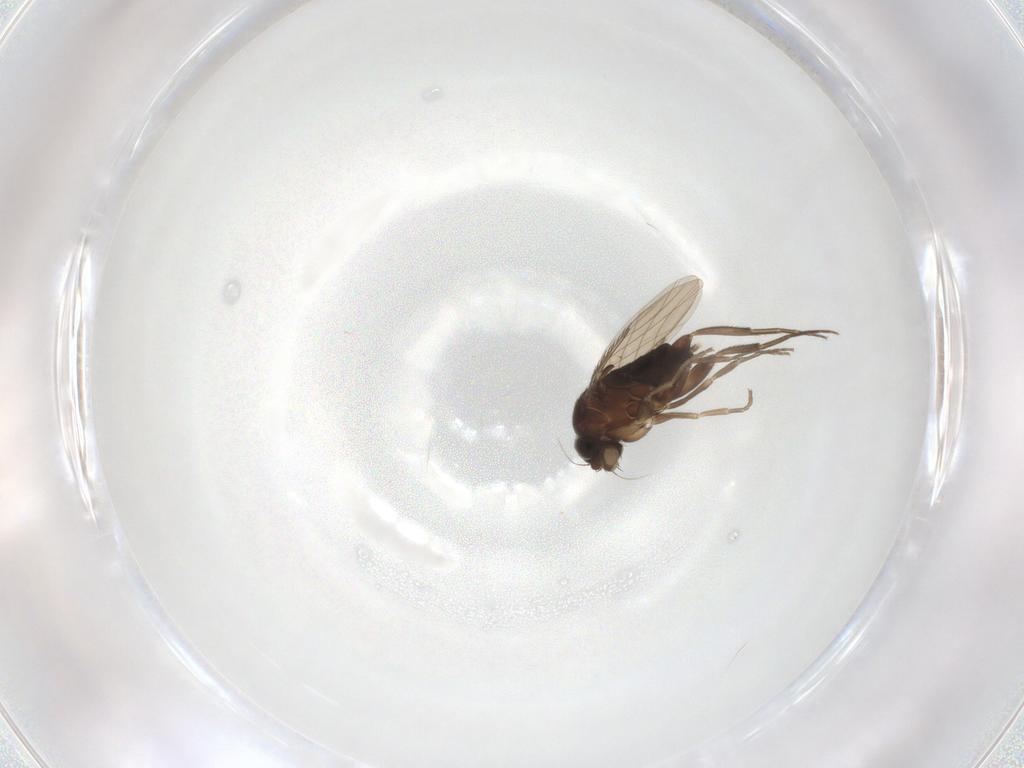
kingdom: Animalia
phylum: Arthropoda
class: Insecta
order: Diptera
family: Phoridae
